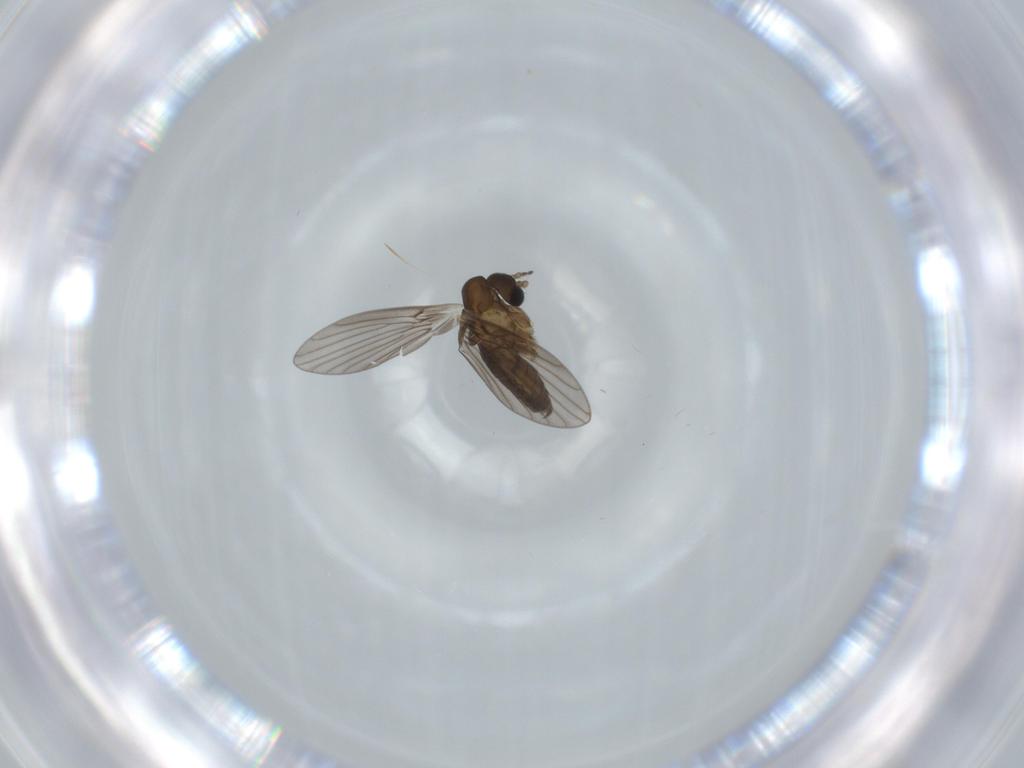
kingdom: Animalia
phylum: Arthropoda
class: Insecta
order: Diptera
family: Psychodidae
